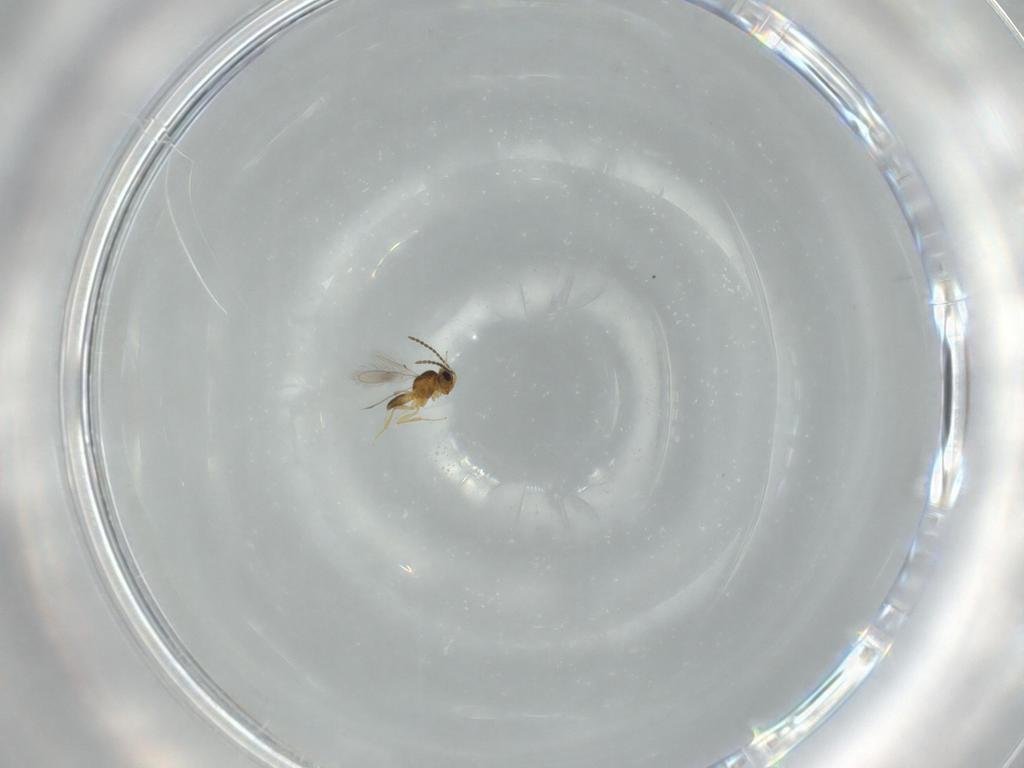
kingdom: Animalia
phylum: Arthropoda
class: Insecta
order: Hymenoptera
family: Scelionidae
